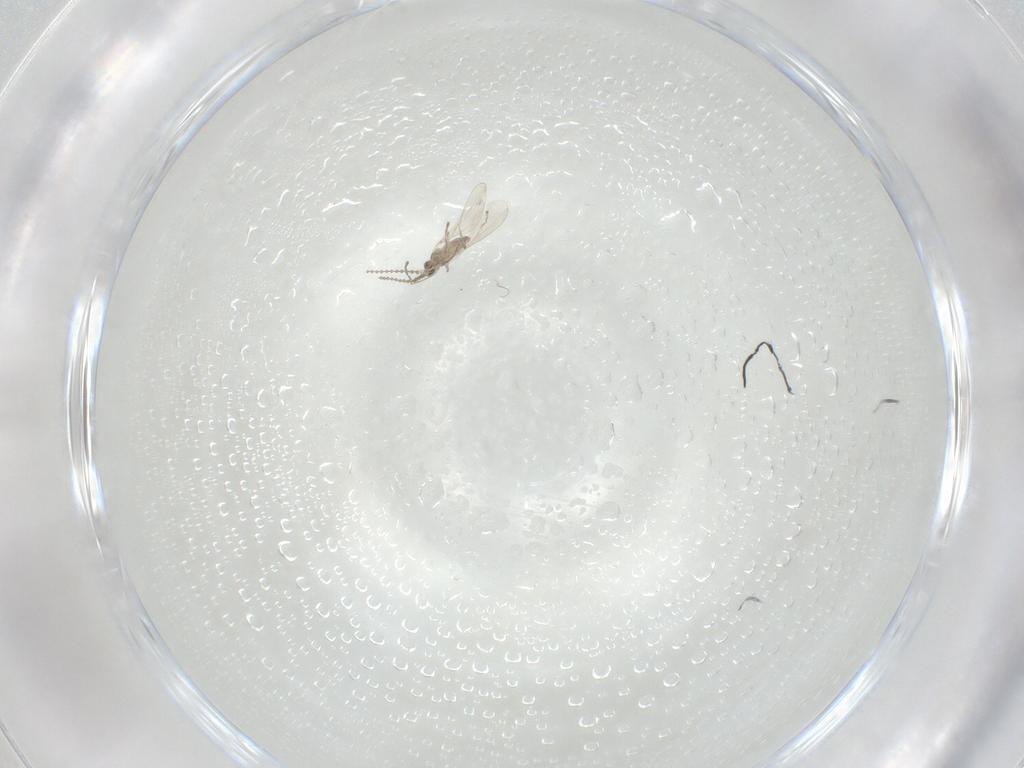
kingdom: Animalia
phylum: Arthropoda
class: Insecta
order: Diptera
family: Cecidomyiidae
